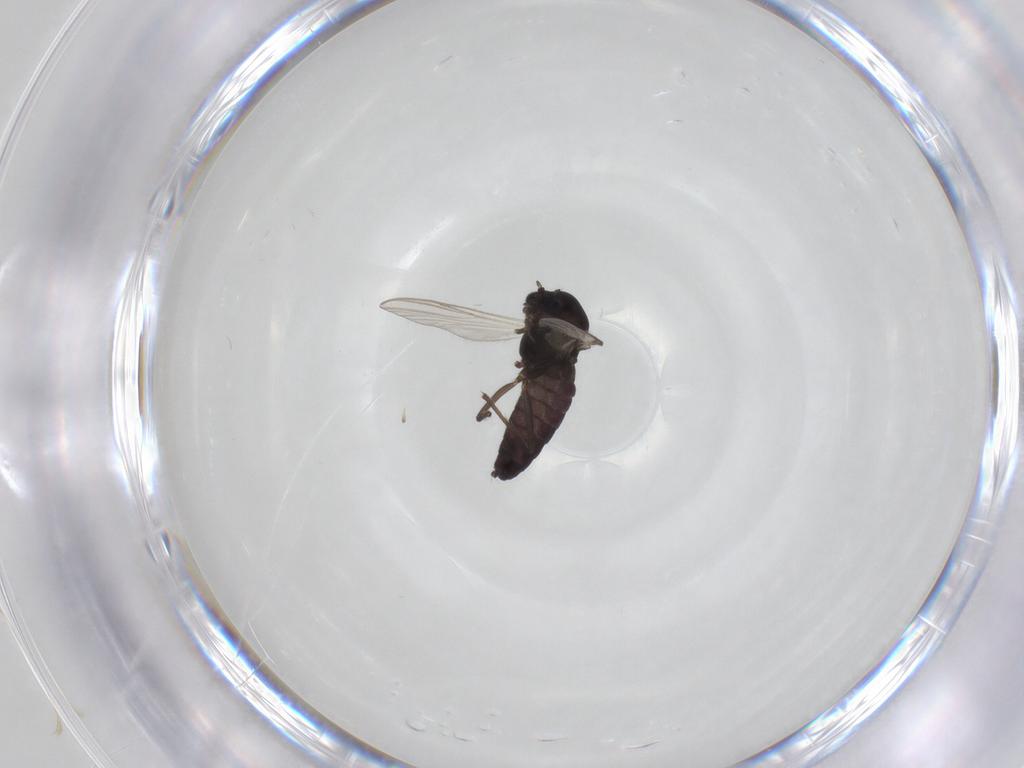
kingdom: Animalia
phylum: Arthropoda
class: Insecta
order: Diptera
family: Chironomidae
